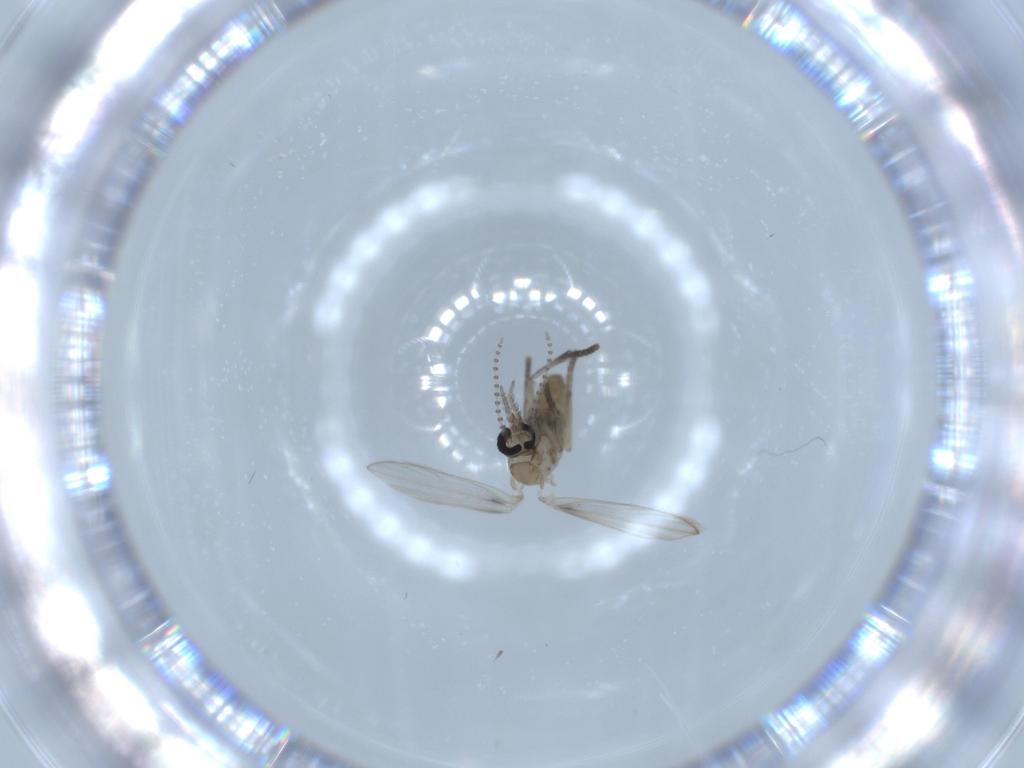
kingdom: Animalia
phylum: Arthropoda
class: Insecta
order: Diptera
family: Psychodidae
